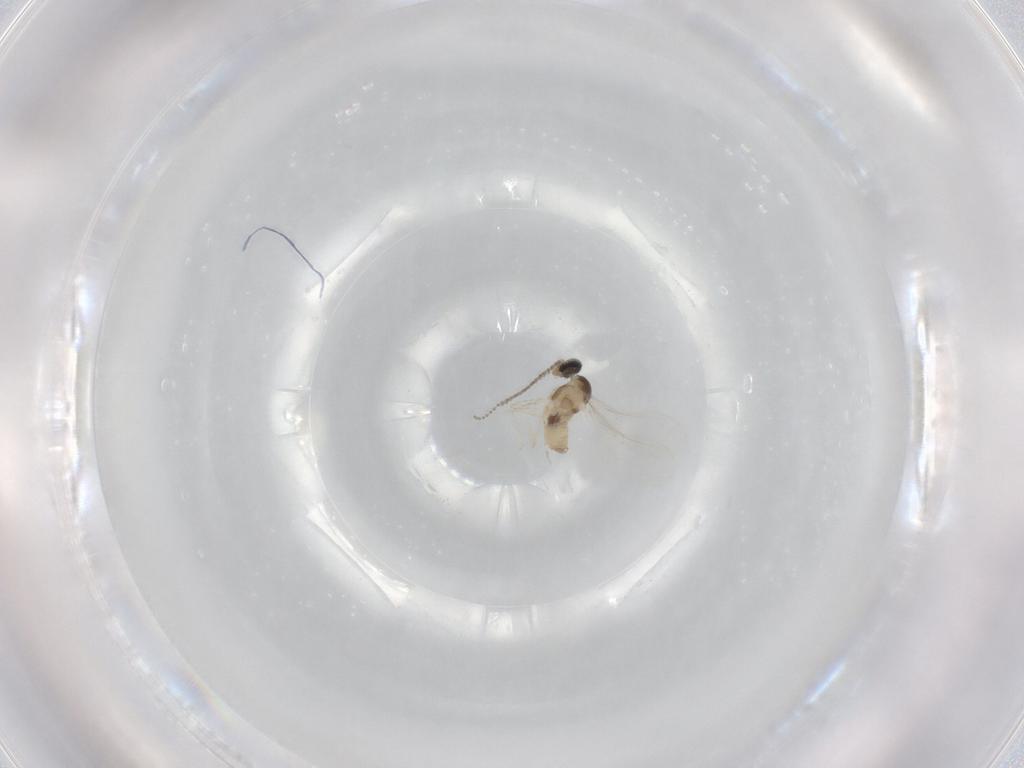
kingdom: Animalia
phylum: Arthropoda
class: Insecta
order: Diptera
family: Cecidomyiidae
